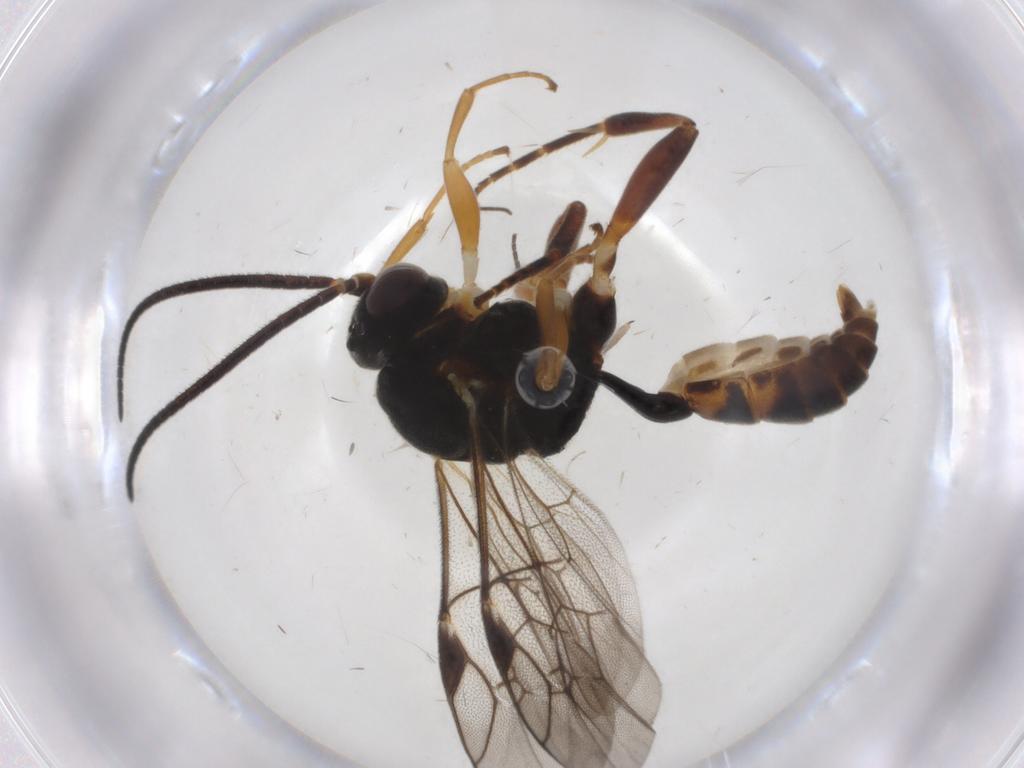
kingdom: Animalia
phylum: Arthropoda
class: Insecta
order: Hymenoptera
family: Ichneumonidae
